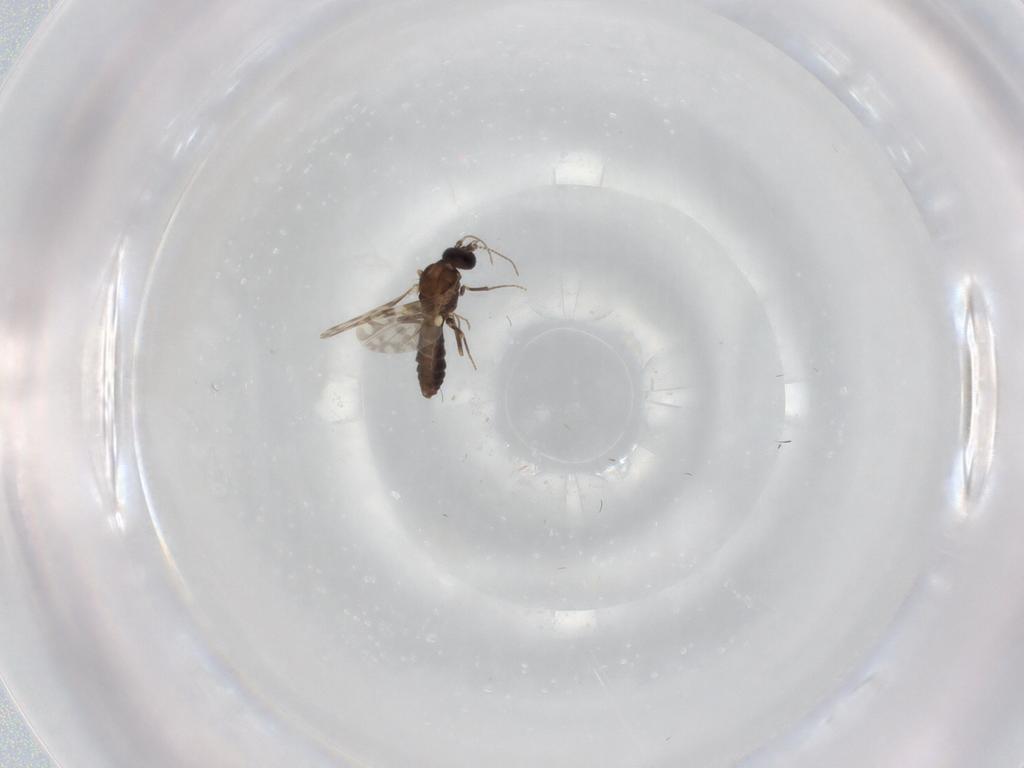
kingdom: Animalia
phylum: Arthropoda
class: Insecta
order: Diptera
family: Ceratopogonidae
